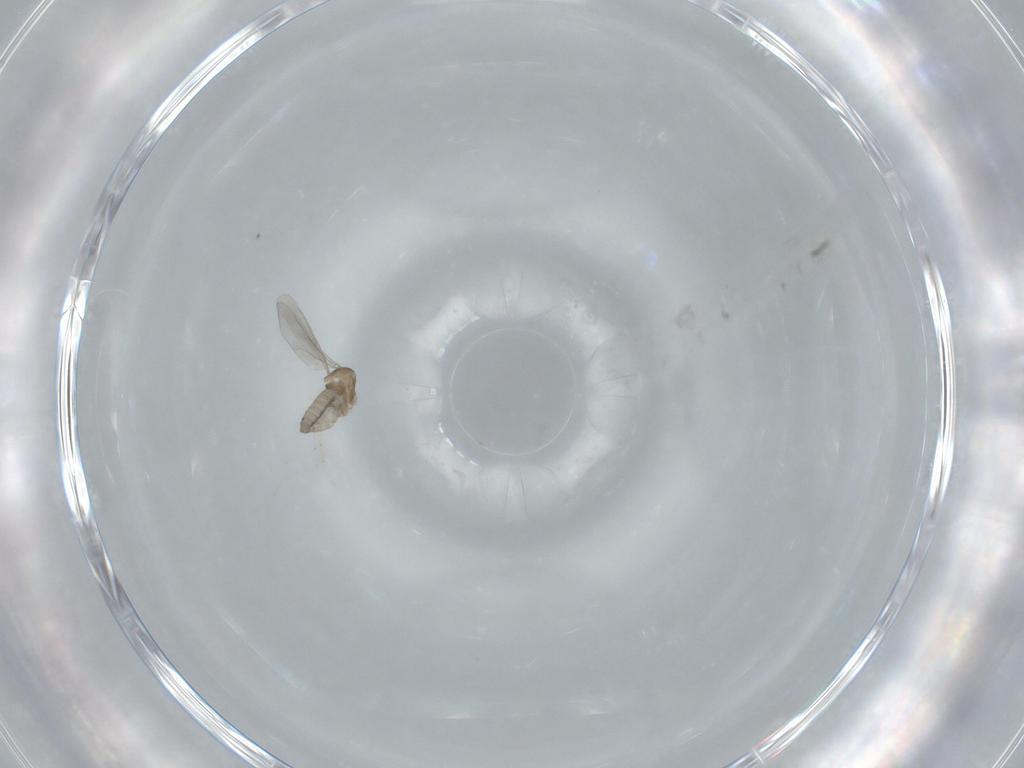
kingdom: Animalia
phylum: Arthropoda
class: Insecta
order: Diptera
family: Cecidomyiidae
